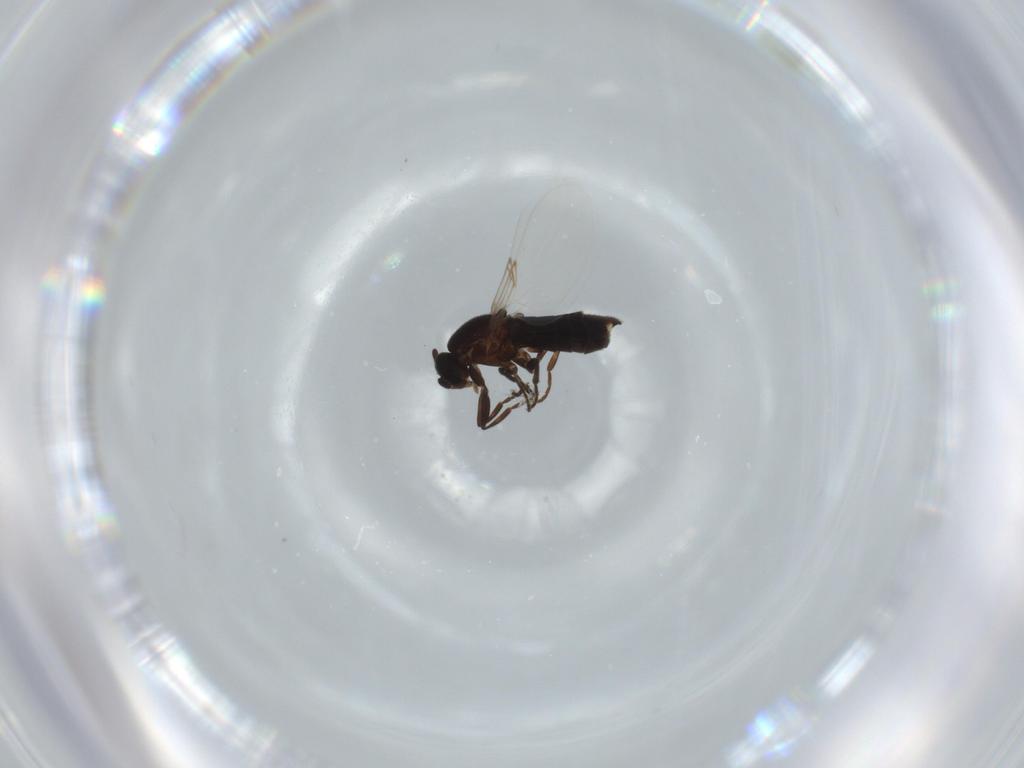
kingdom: Animalia
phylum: Arthropoda
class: Insecta
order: Diptera
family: Scatopsidae
